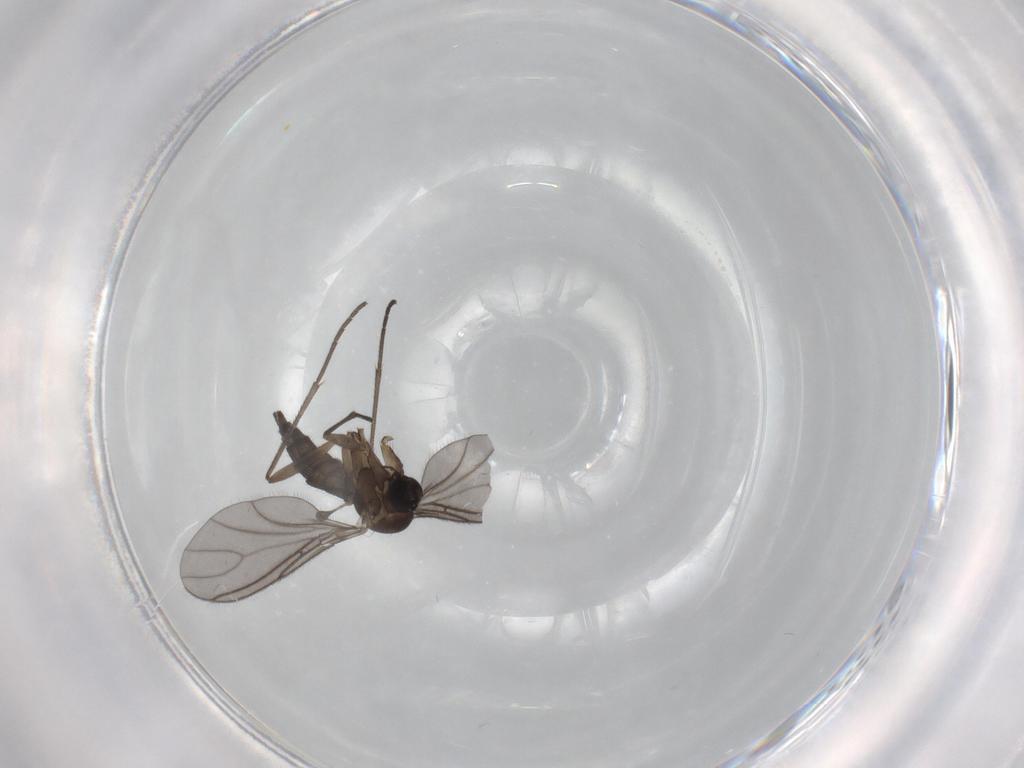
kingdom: Animalia
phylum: Arthropoda
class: Insecta
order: Diptera
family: Sciaridae
